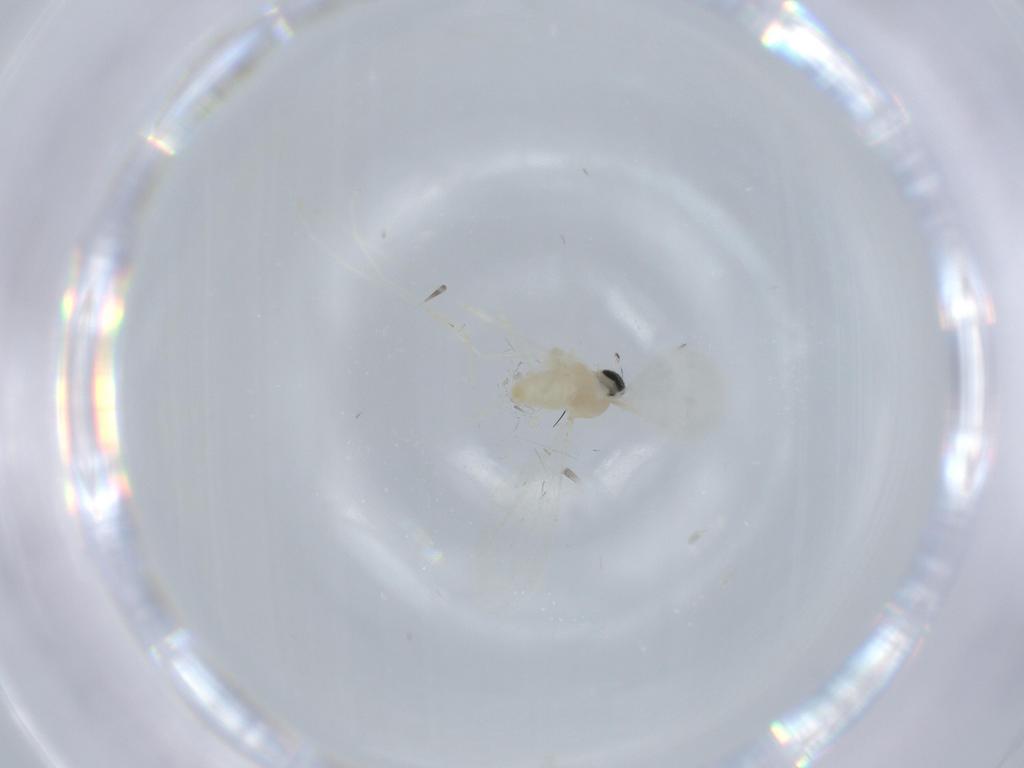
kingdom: Animalia
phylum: Arthropoda
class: Insecta
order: Diptera
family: Cecidomyiidae
